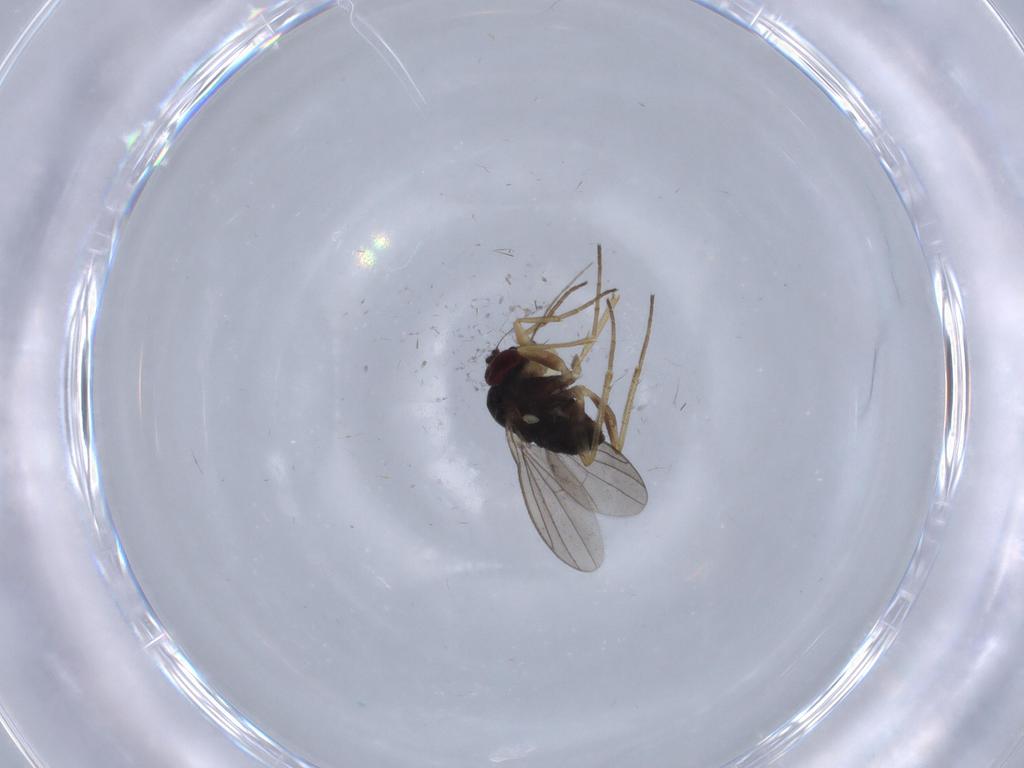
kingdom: Animalia
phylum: Arthropoda
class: Insecta
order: Diptera
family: Dolichopodidae
